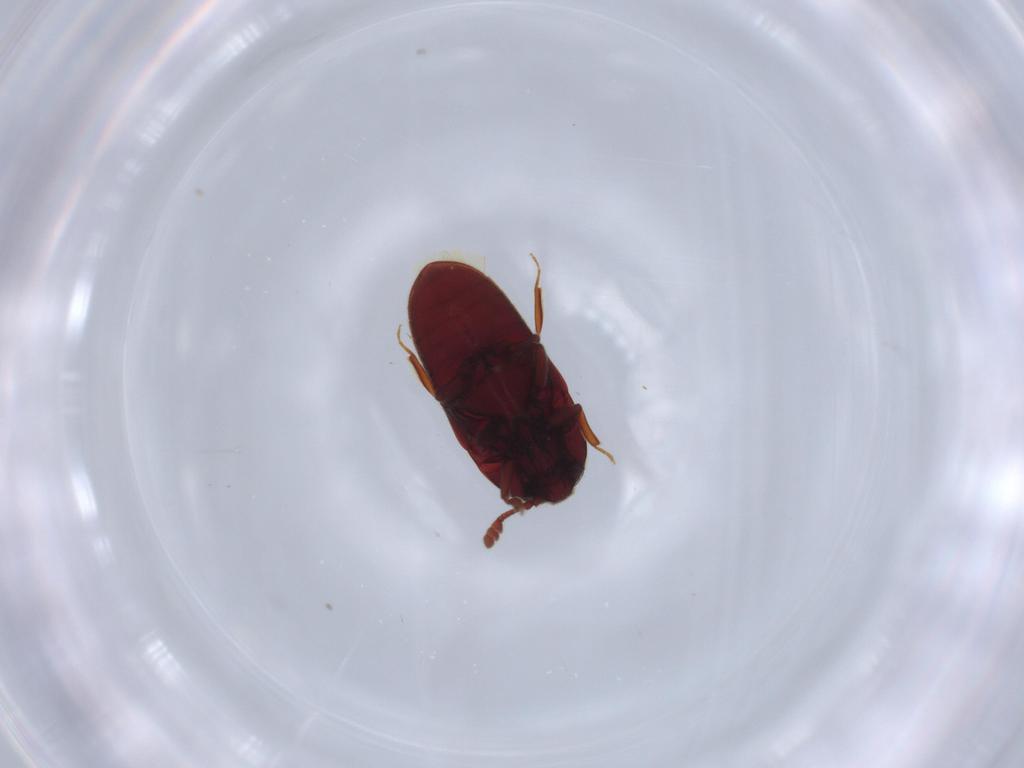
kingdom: Animalia
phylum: Arthropoda
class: Insecta
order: Coleoptera
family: Throscidae
